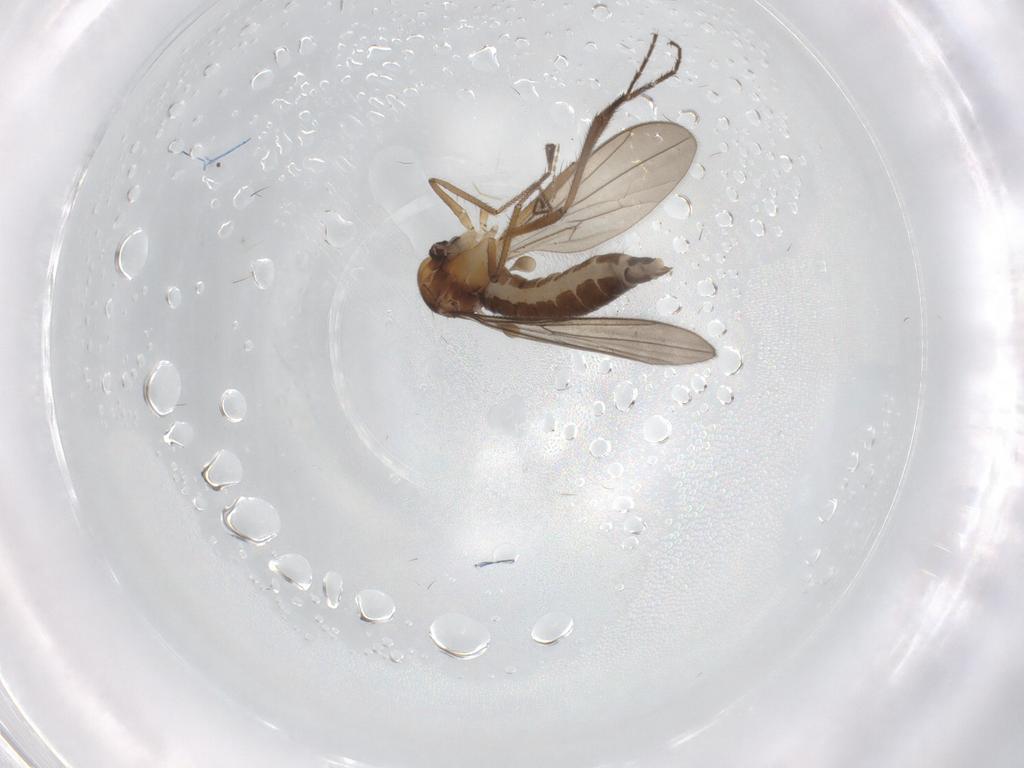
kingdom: Animalia
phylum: Arthropoda
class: Insecta
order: Diptera
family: Hybotidae
